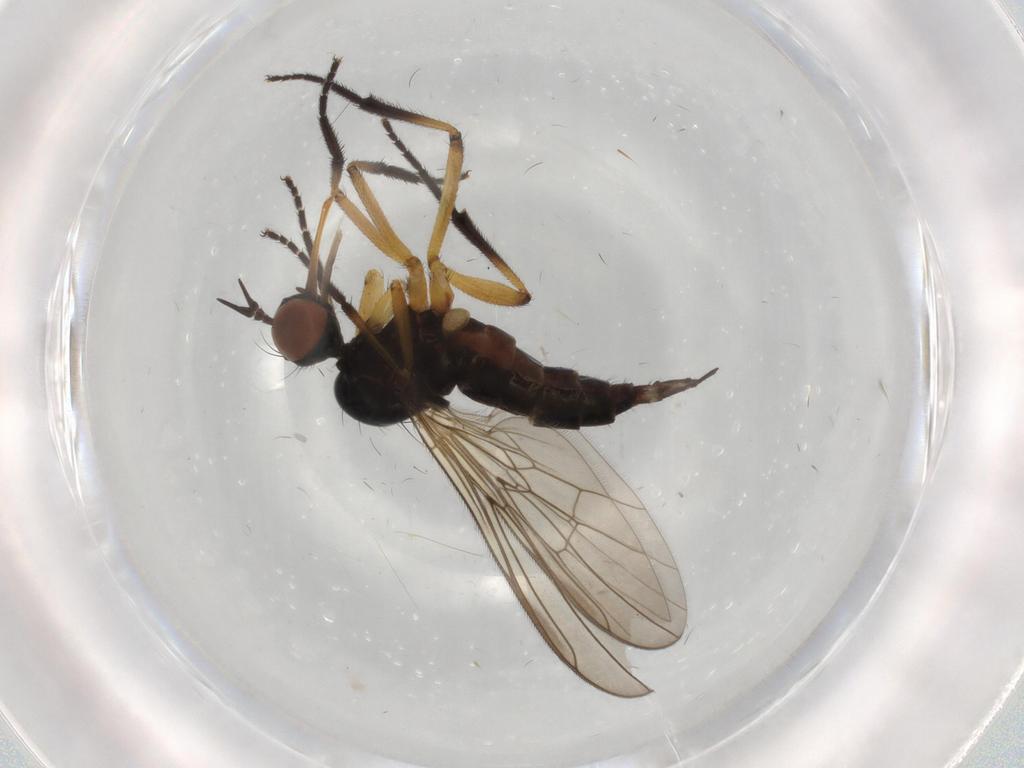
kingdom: Animalia
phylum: Arthropoda
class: Insecta
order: Diptera
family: Empididae
